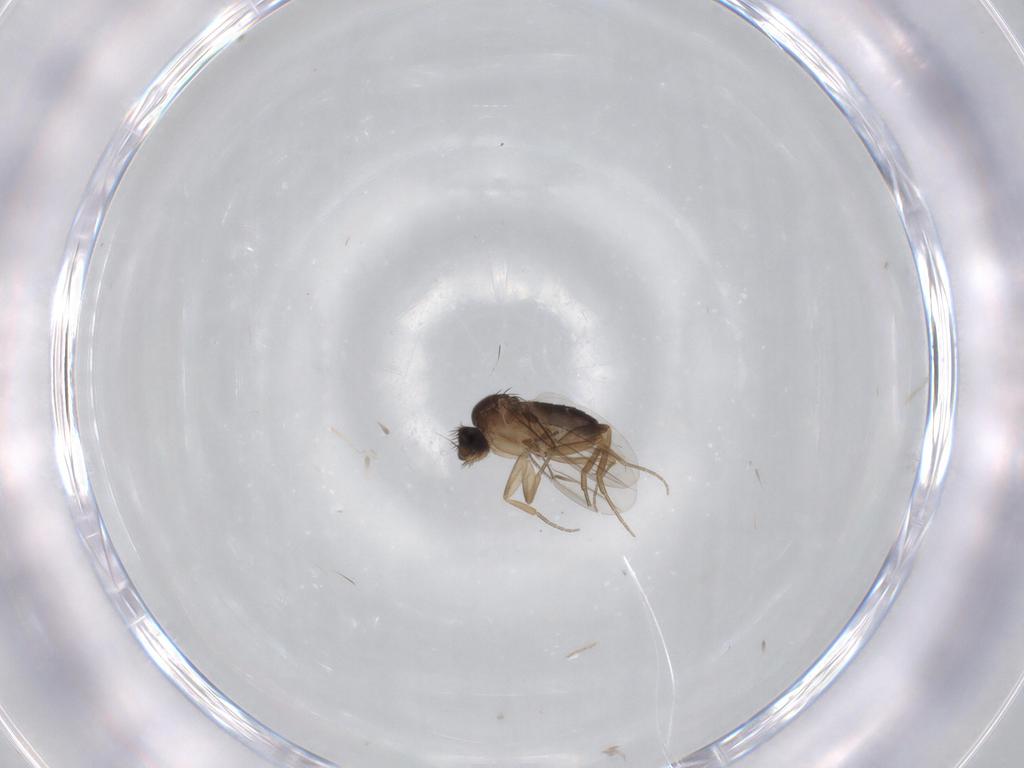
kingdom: Animalia
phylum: Arthropoda
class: Insecta
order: Diptera
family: Phoridae
